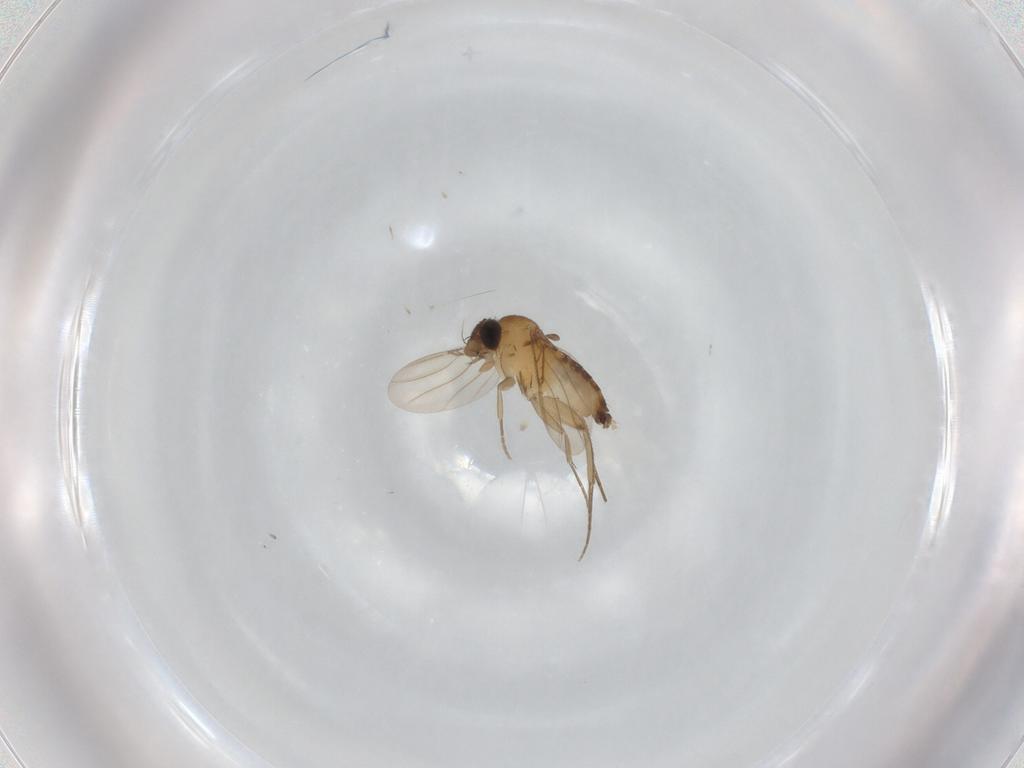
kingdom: Animalia
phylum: Arthropoda
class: Insecta
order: Diptera
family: Phoridae
